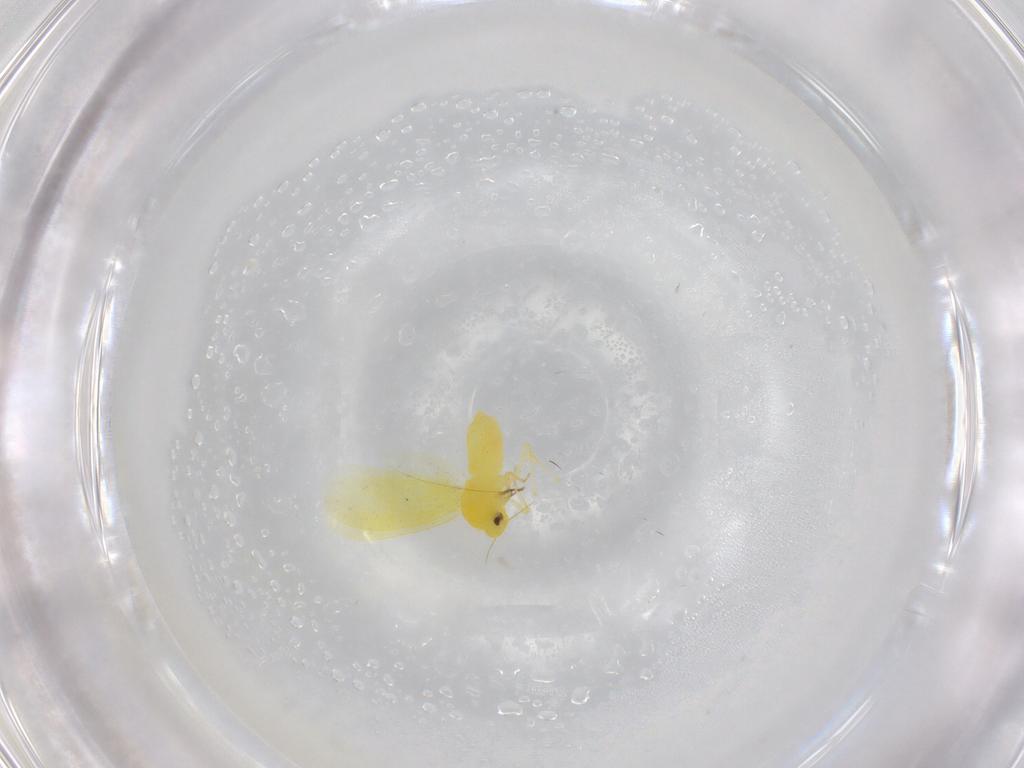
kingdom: Animalia
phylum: Arthropoda
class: Insecta
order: Hemiptera
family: Aleyrodidae
